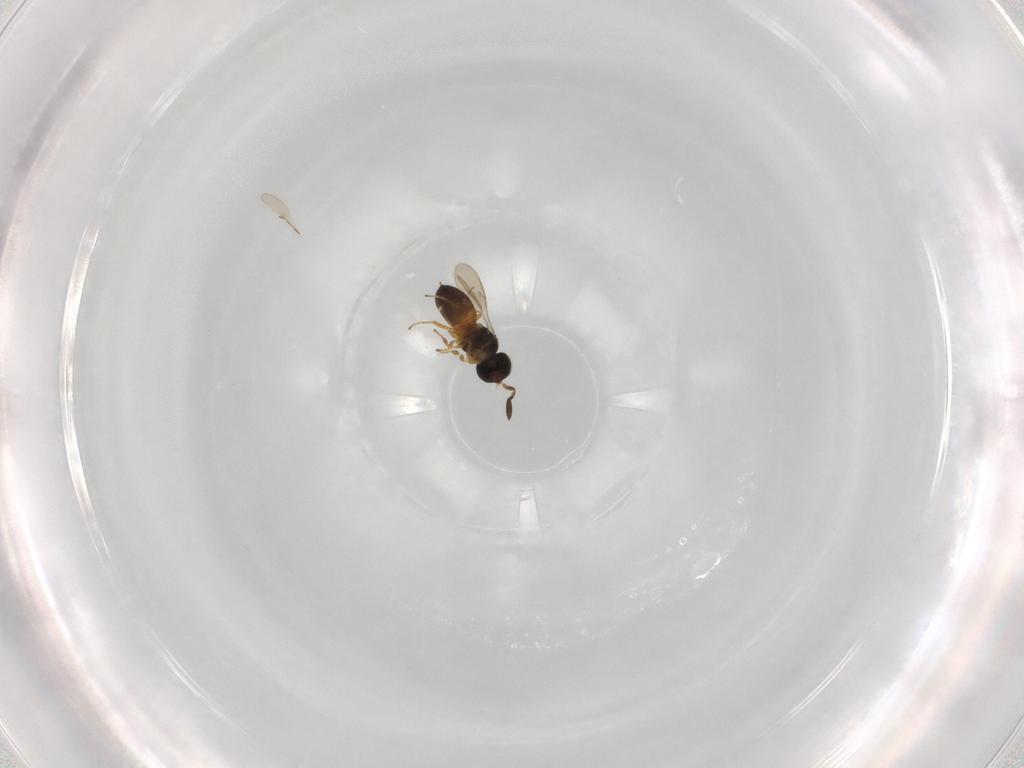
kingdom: Animalia
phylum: Arthropoda
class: Insecta
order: Hymenoptera
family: Scelionidae
